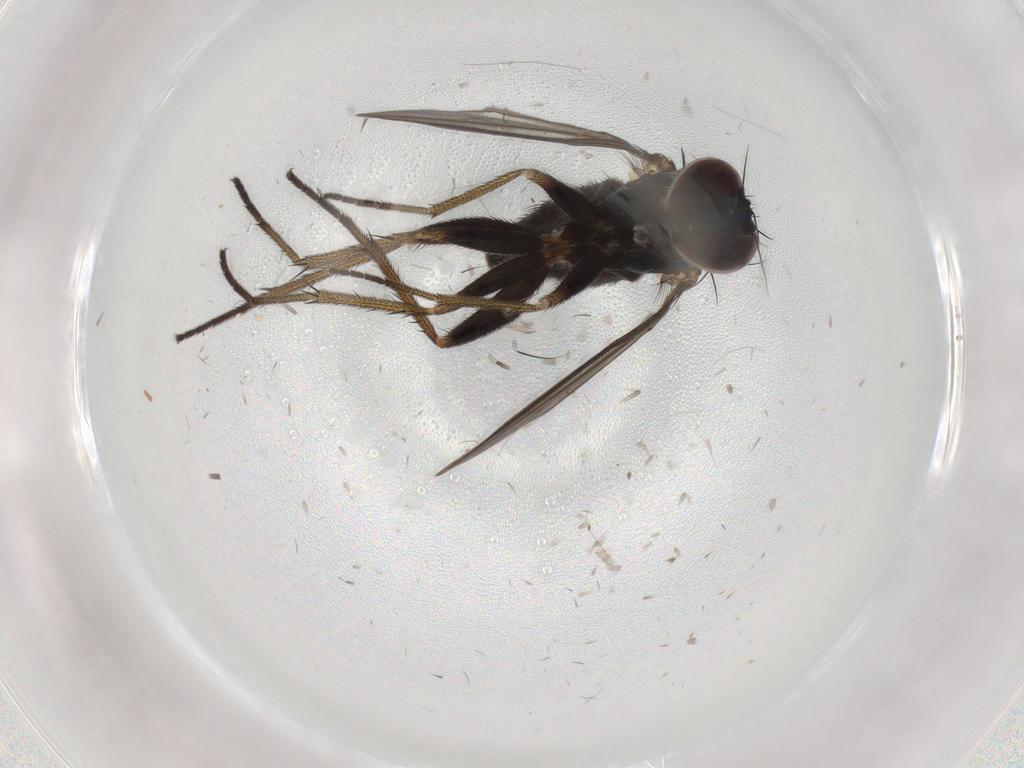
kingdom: Animalia
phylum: Arthropoda
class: Insecta
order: Diptera
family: Dolichopodidae
